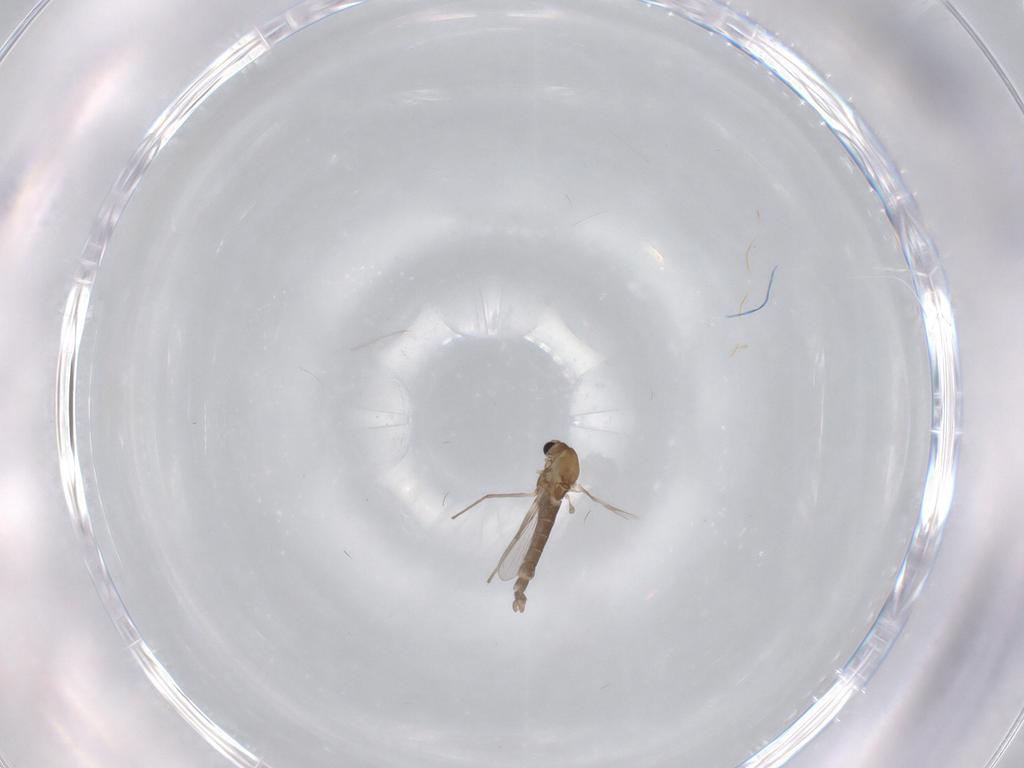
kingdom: Animalia
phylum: Arthropoda
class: Insecta
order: Diptera
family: Chironomidae
